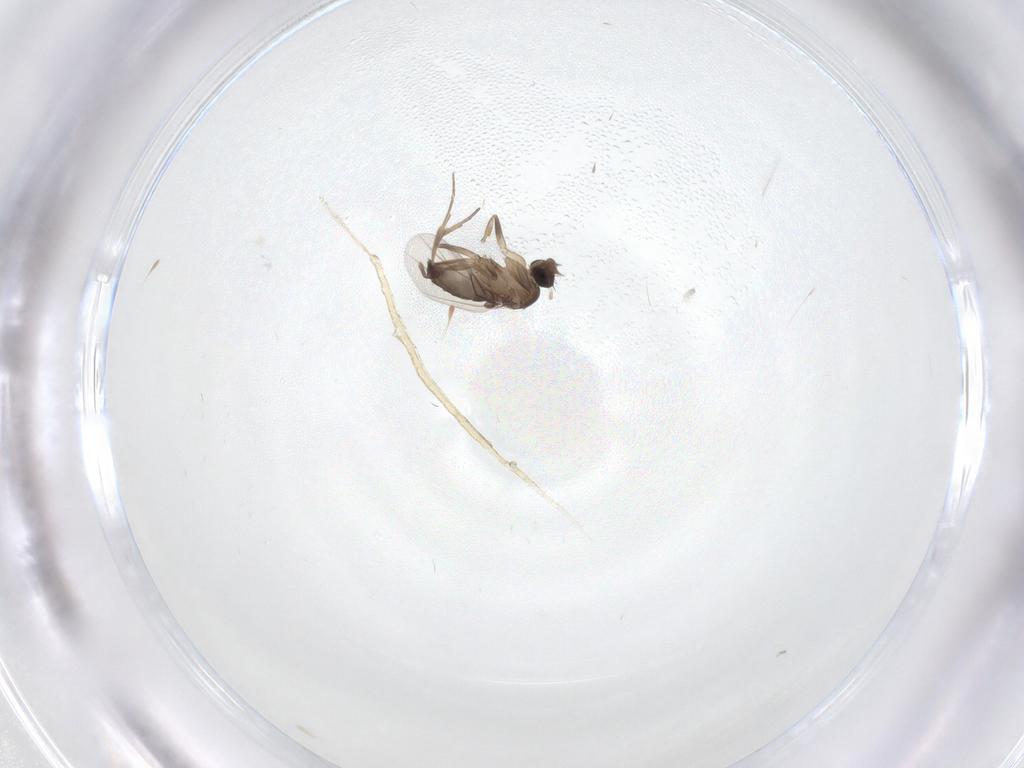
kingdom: Animalia
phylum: Arthropoda
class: Insecta
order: Diptera
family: Phoridae
